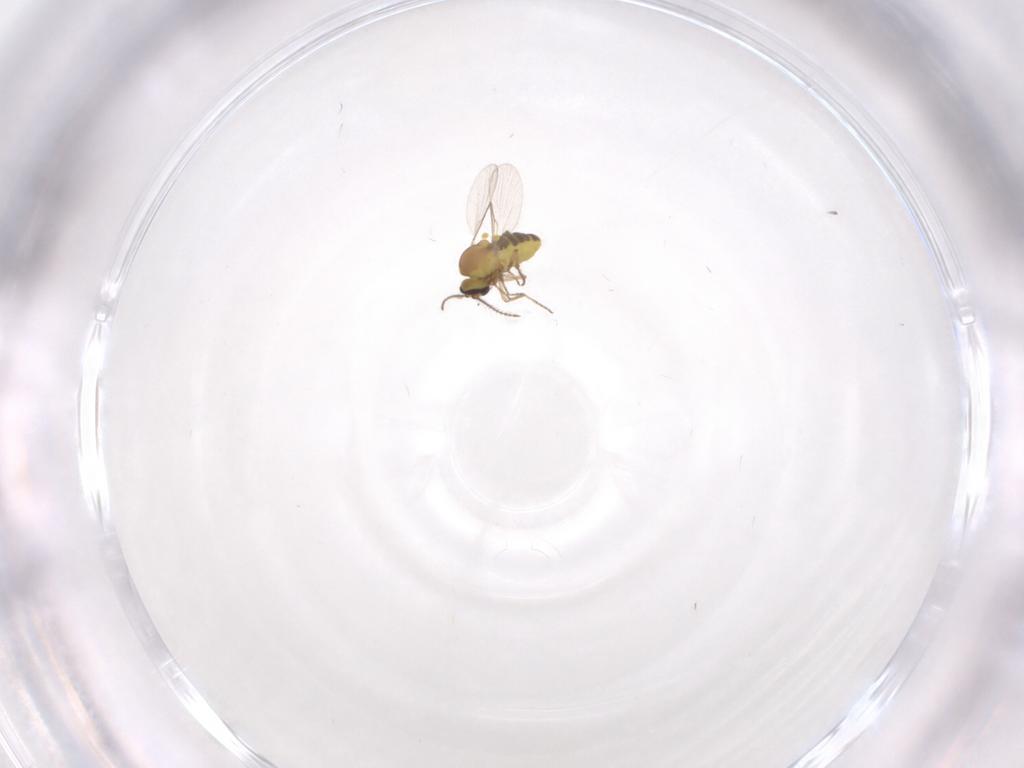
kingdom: Animalia
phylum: Arthropoda
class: Insecta
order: Diptera
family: Ceratopogonidae
